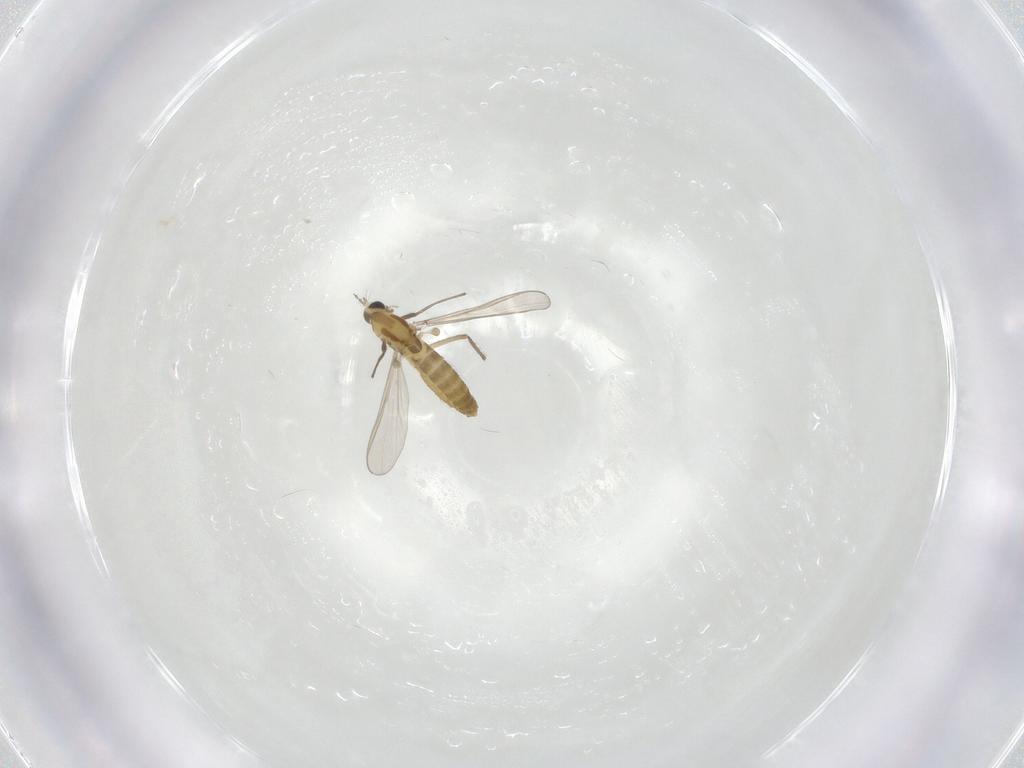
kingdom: Animalia
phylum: Arthropoda
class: Insecta
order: Diptera
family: Chironomidae
